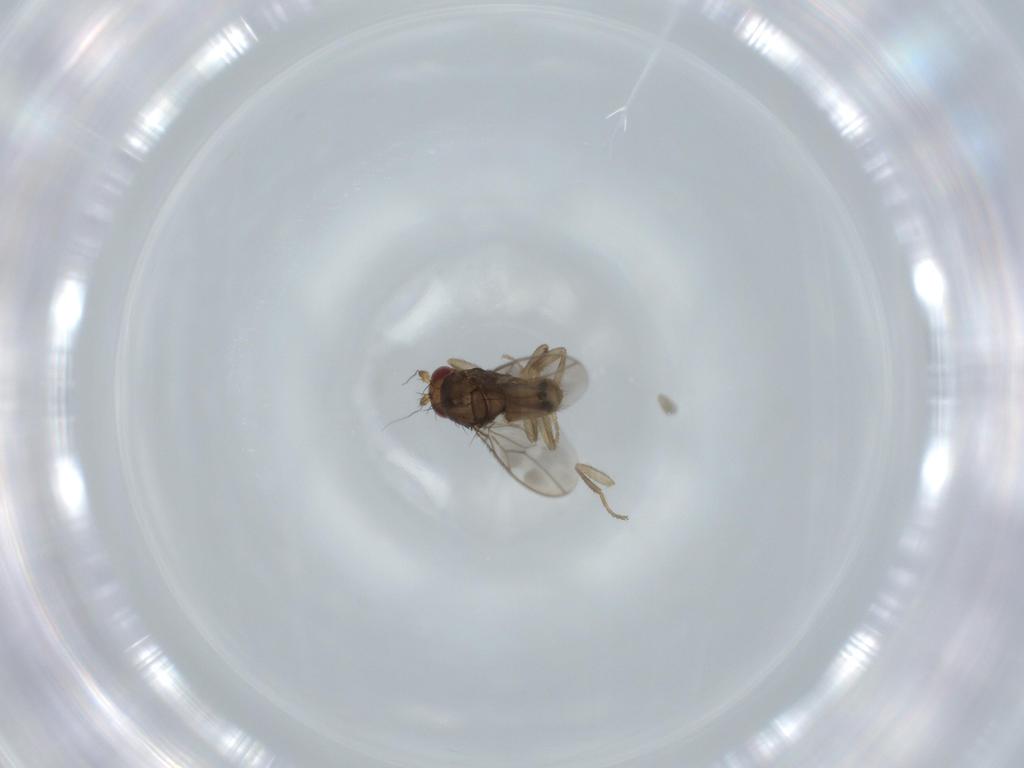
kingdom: Animalia
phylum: Arthropoda
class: Insecta
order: Diptera
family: Sphaeroceridae
